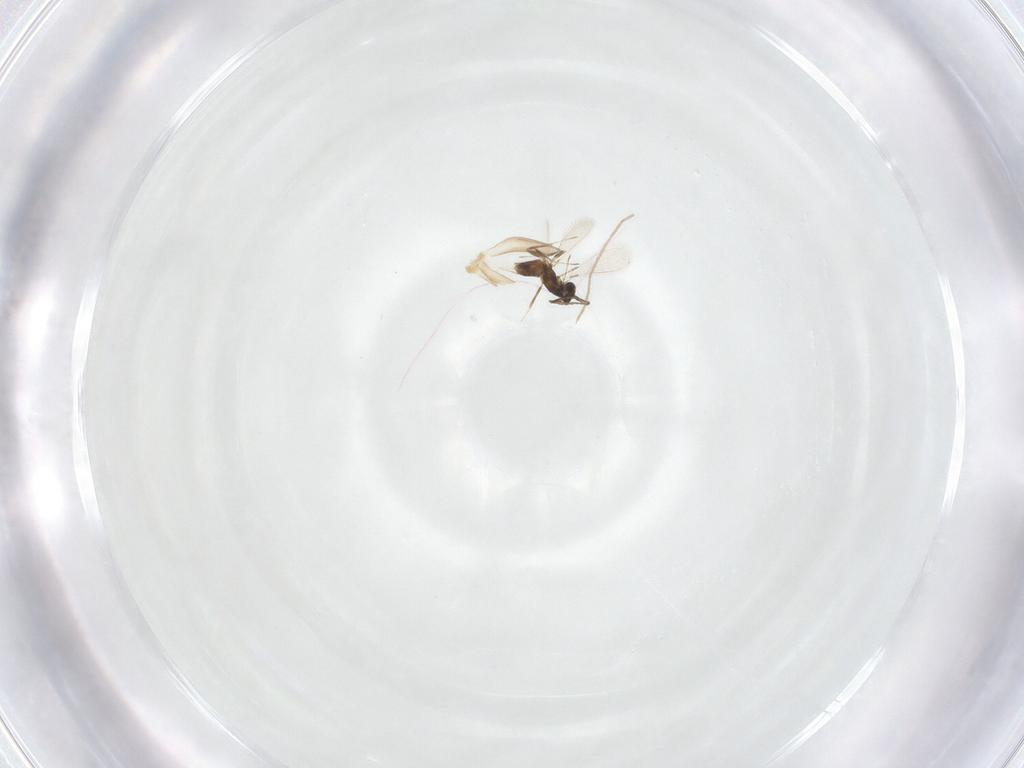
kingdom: Animalia
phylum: Arthropoda
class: Insecta
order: Hymenoptera
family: Mymaridae
